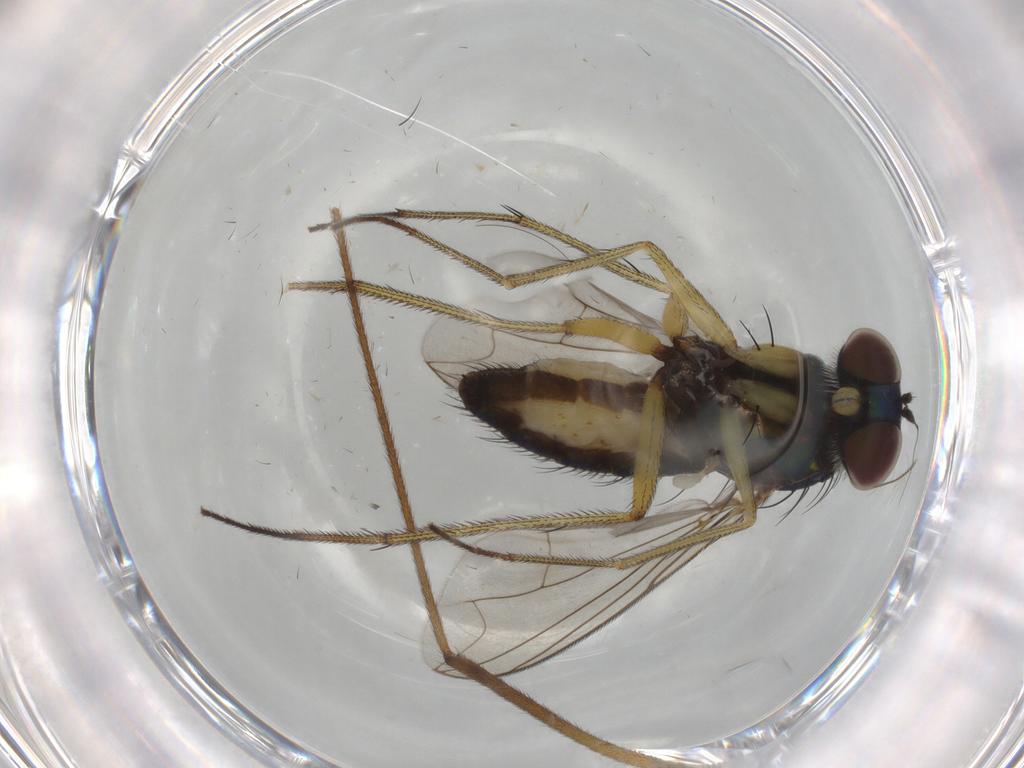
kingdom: Animalia
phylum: Arthropoda
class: Insecta
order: Diptera
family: Dolichopodidae
